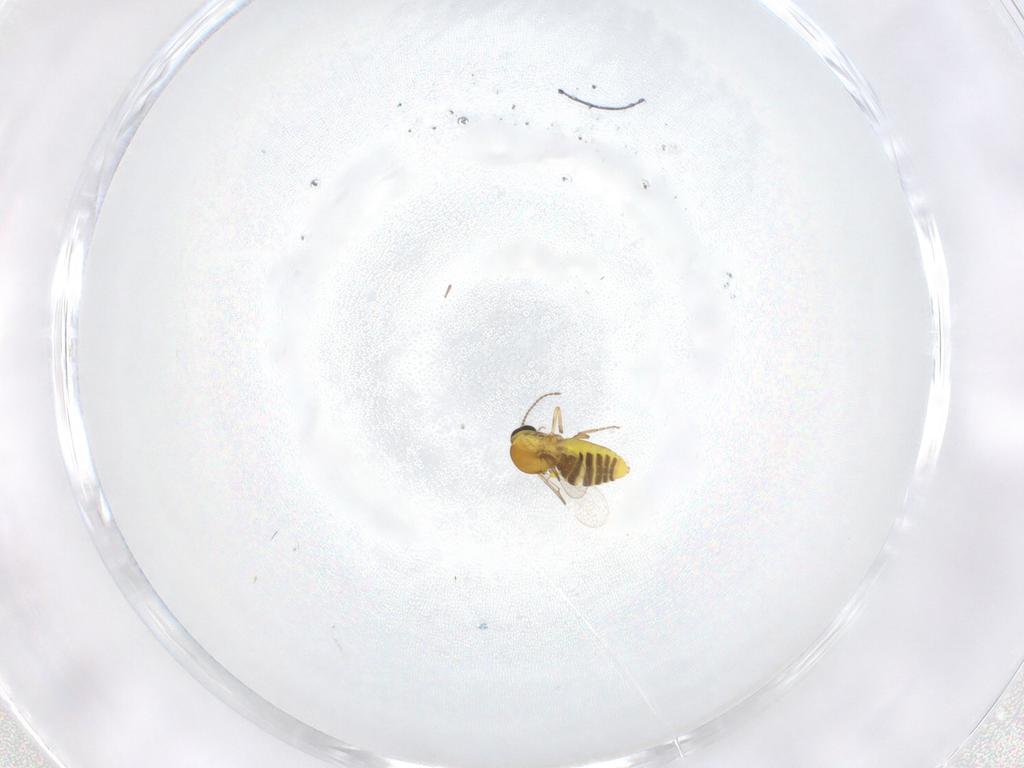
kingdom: Animalia
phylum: Arthropoda
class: Insecta
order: Diptera
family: Ceratopogonidae
